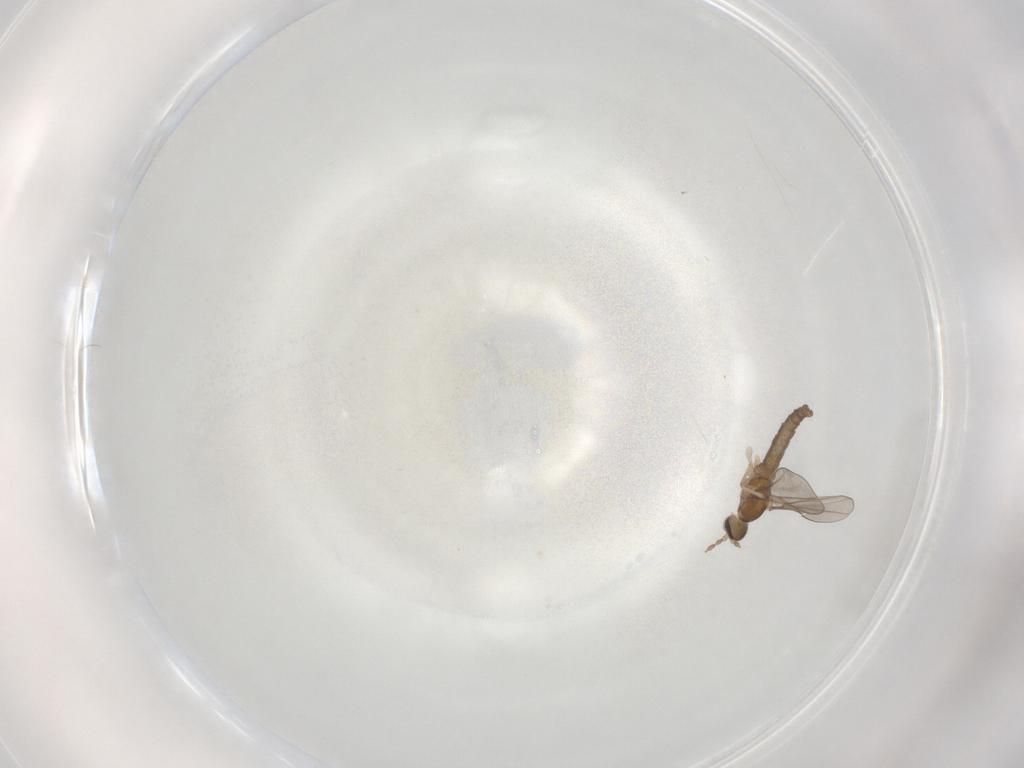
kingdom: Animalia
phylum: Arthropoda
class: Insecta
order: Diptera
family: Cecidomyiidae
